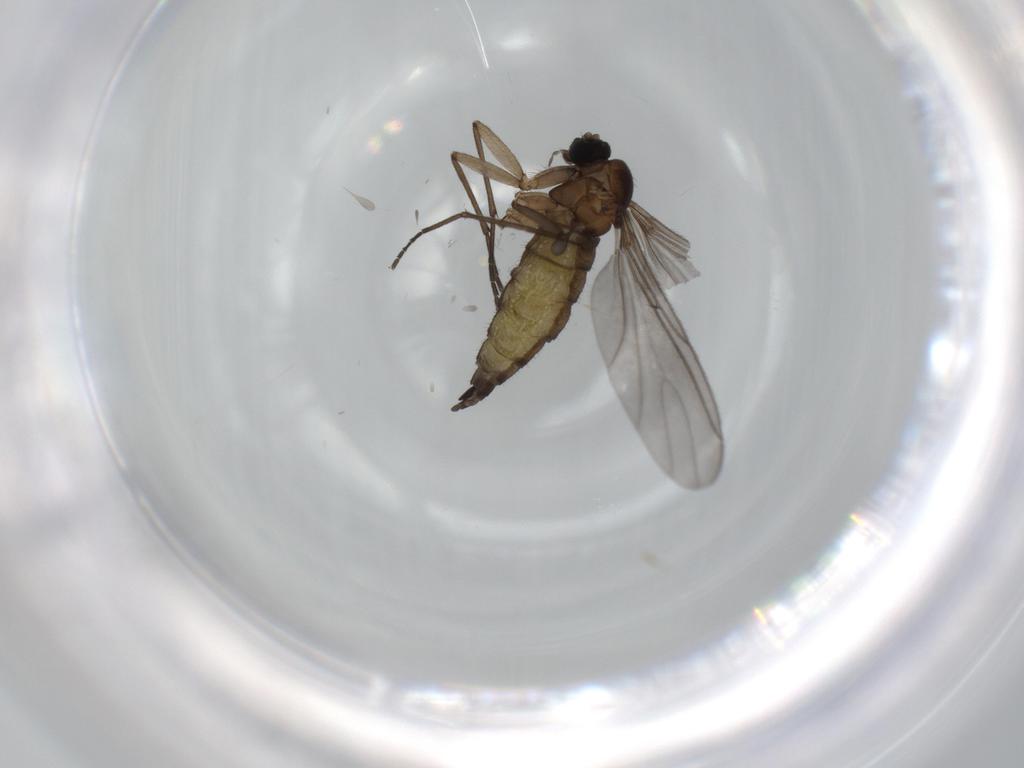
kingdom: Animalia
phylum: Arthropoda
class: Insecta
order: Diptera
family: Sciaridae
